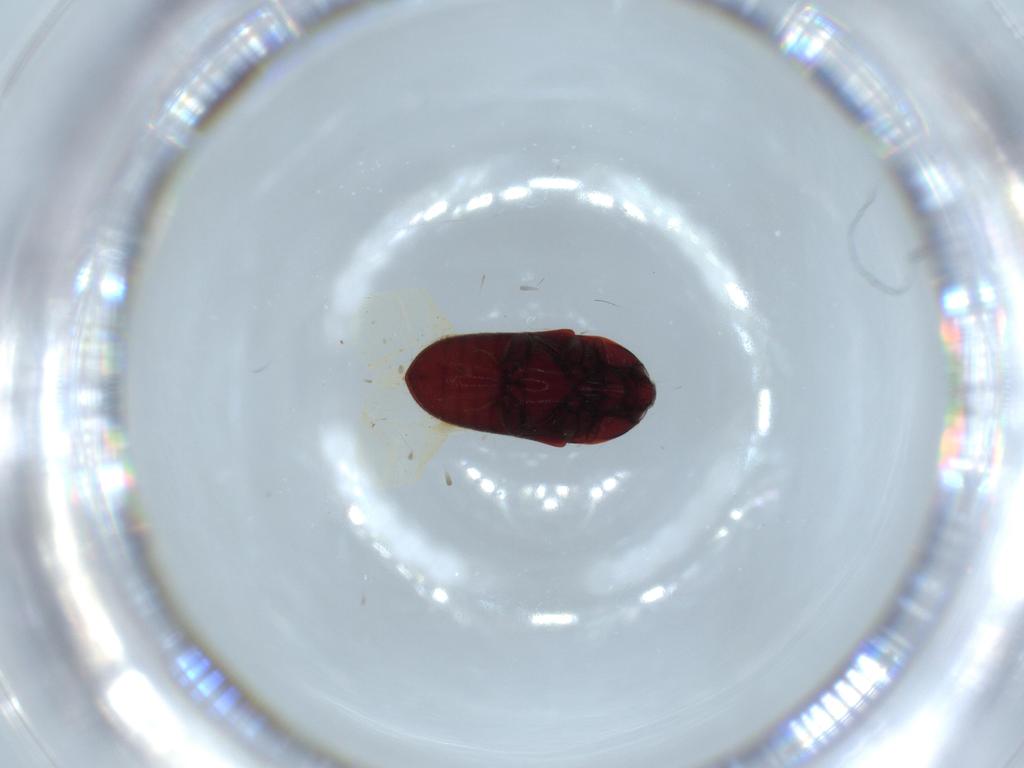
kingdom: Animalia
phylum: Arthropoda
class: Insecta
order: Coleoptera
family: Throscidae
